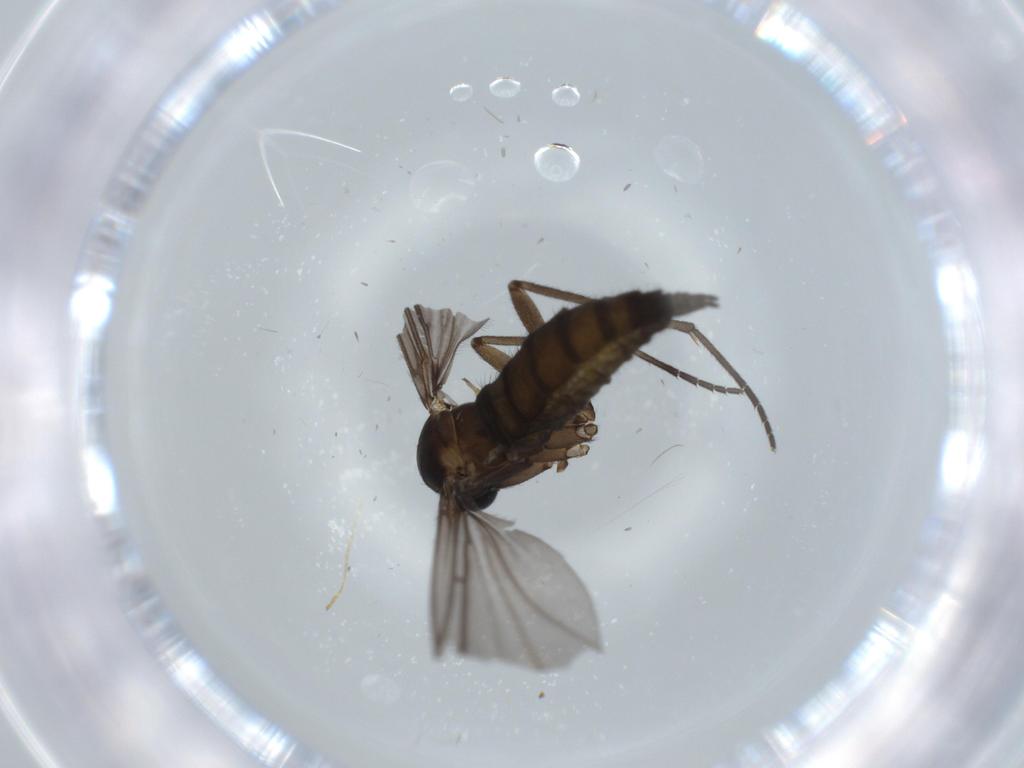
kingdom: Animalia
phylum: Arthropoda
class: Insecta
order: Diptera
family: Sciaridae
